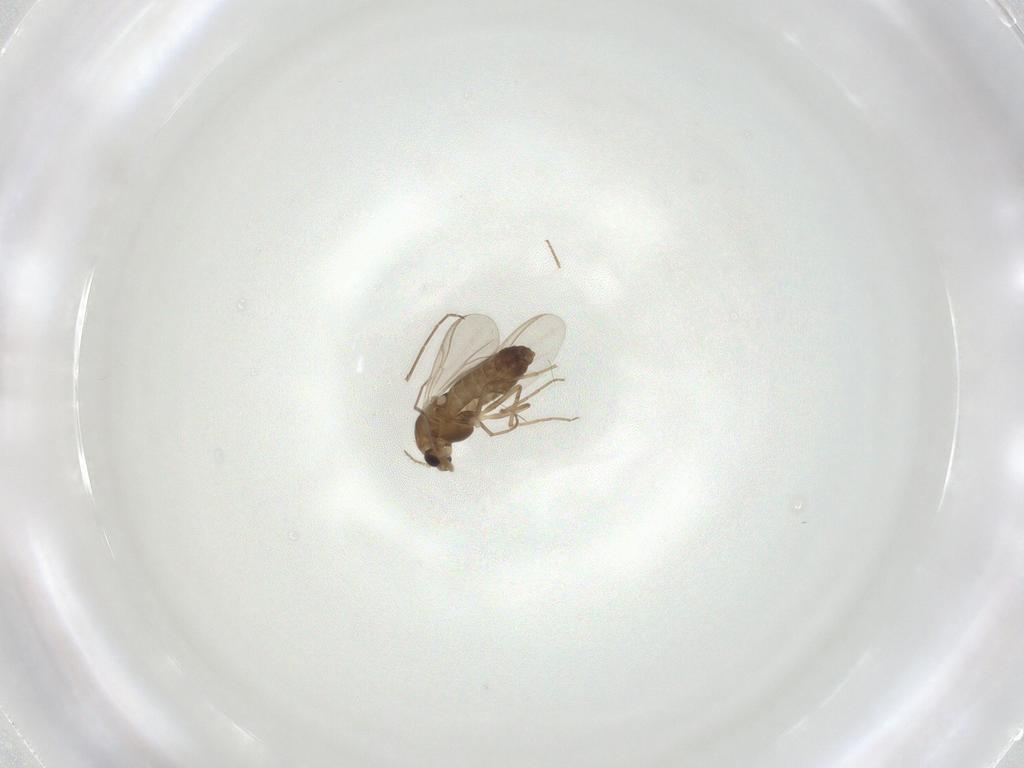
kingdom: Animalia
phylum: Arthropoda
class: Insecta
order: Diptera
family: Chironomidae
